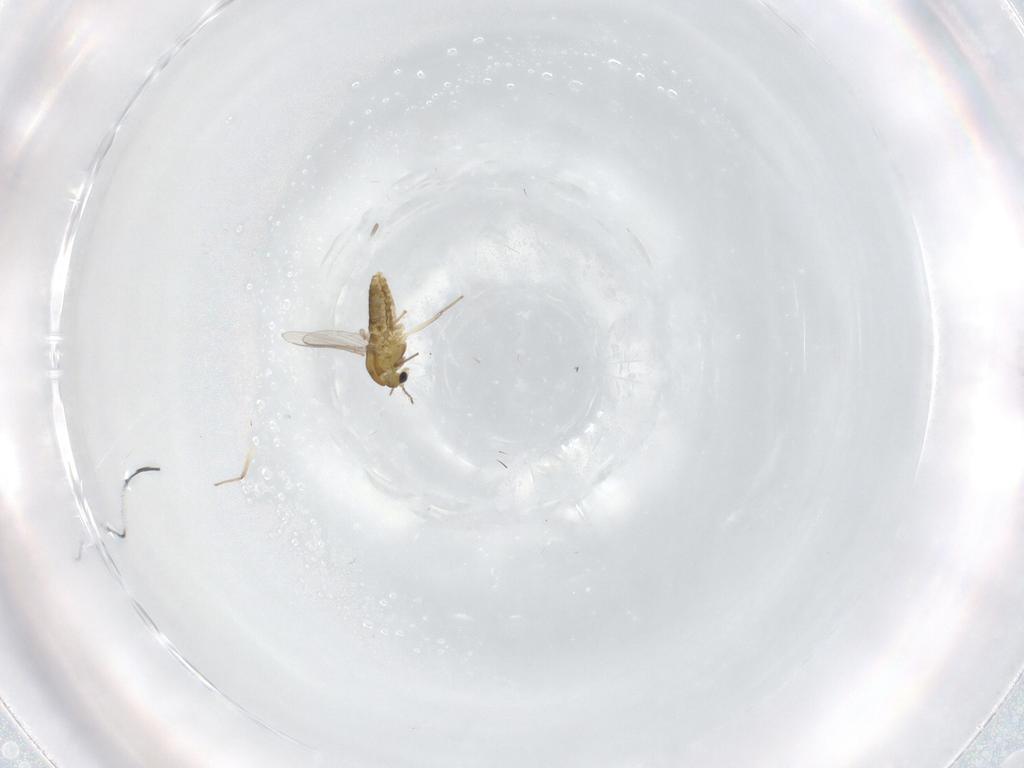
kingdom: Animalia
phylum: Arthropoda
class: Insecta
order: Diptera
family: Chironomidae
